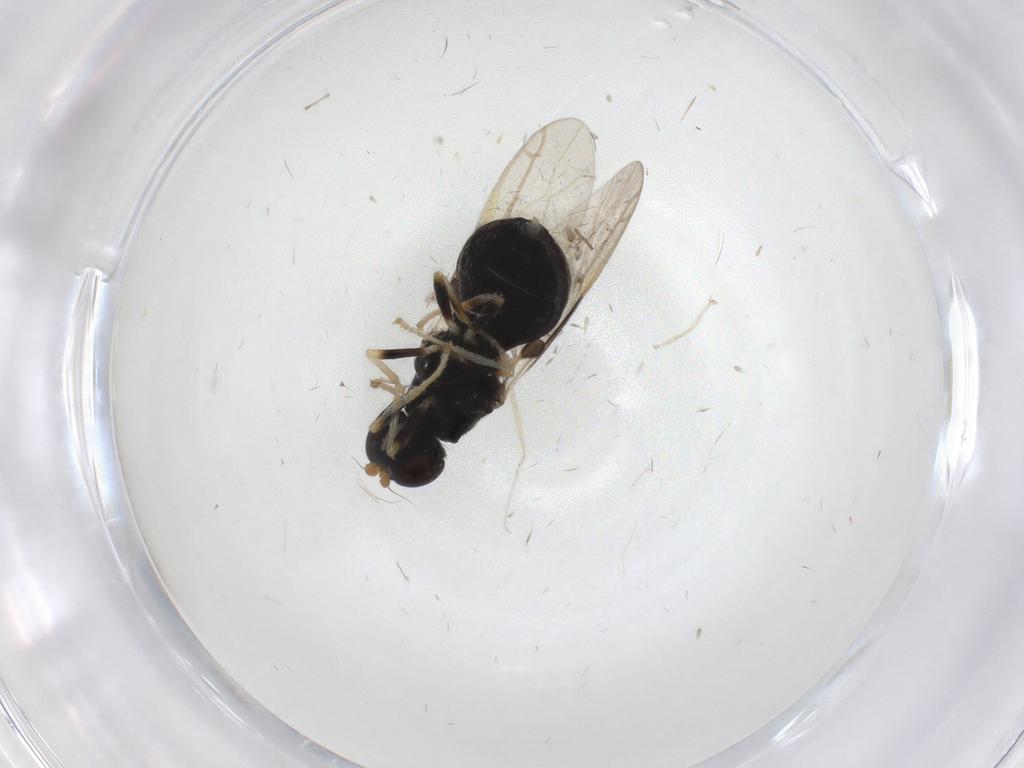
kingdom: Animalia
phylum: Arthropoda
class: Insecta
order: Diptera
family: Stratiomyidae
